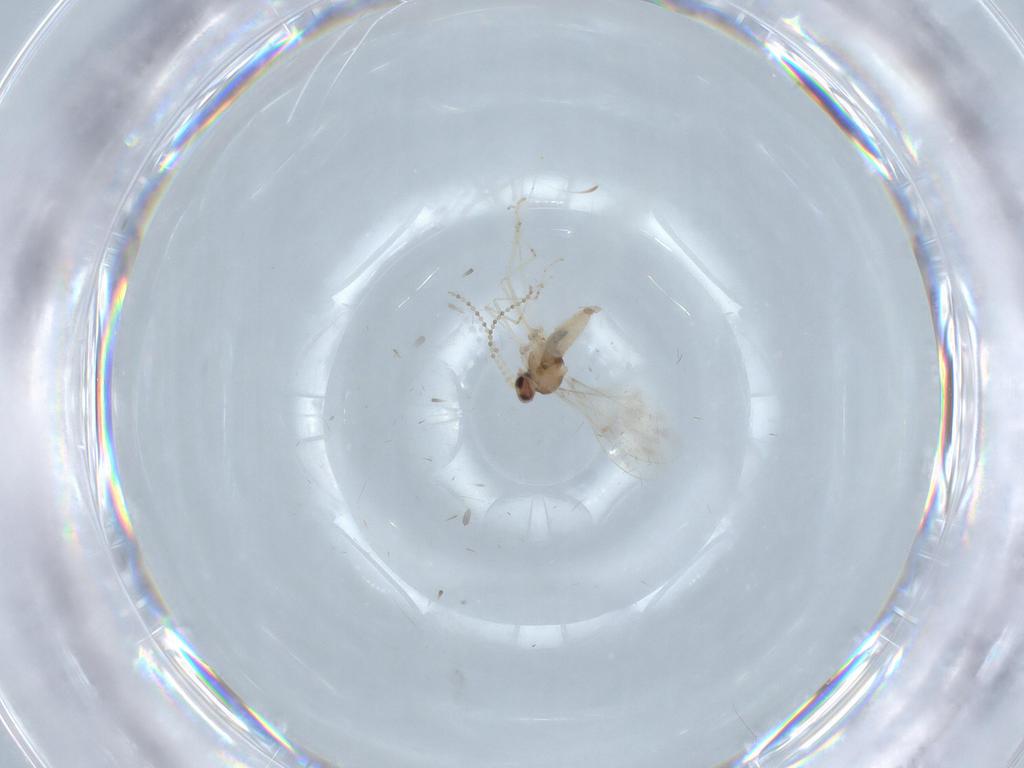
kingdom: Animalia
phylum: Arthropoda
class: Insecta
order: Diptera
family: Cecidomyiidae
